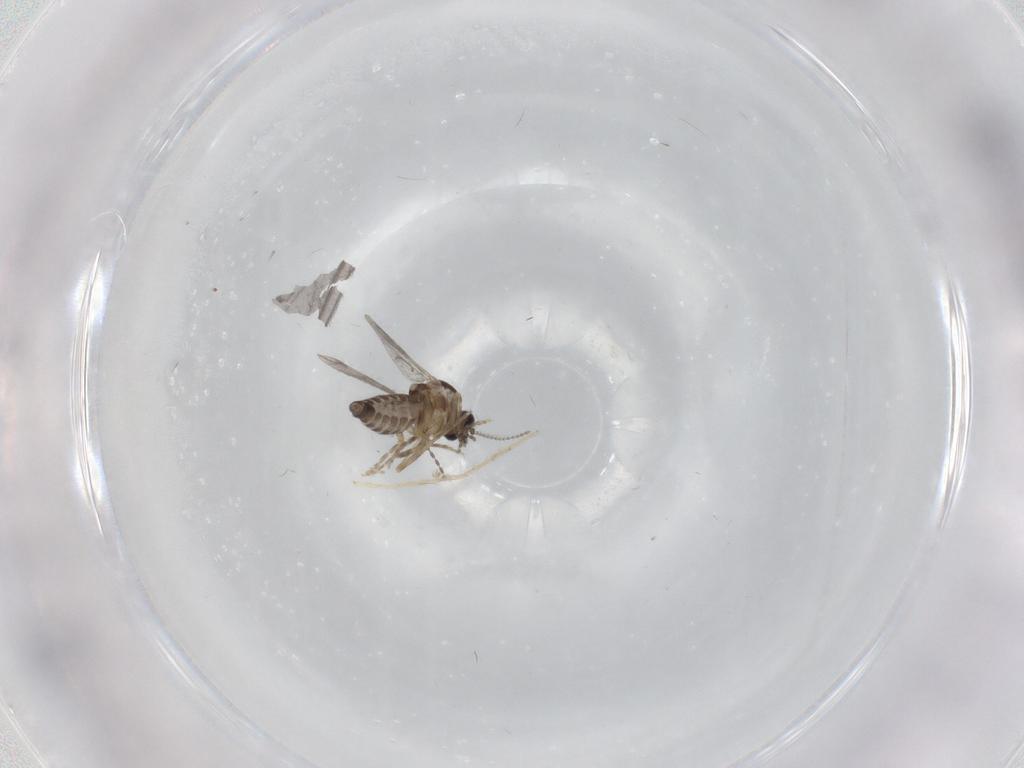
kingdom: Animalia
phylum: Arthropoda
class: Insecta
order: Diptera
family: Ceratopogonidae
